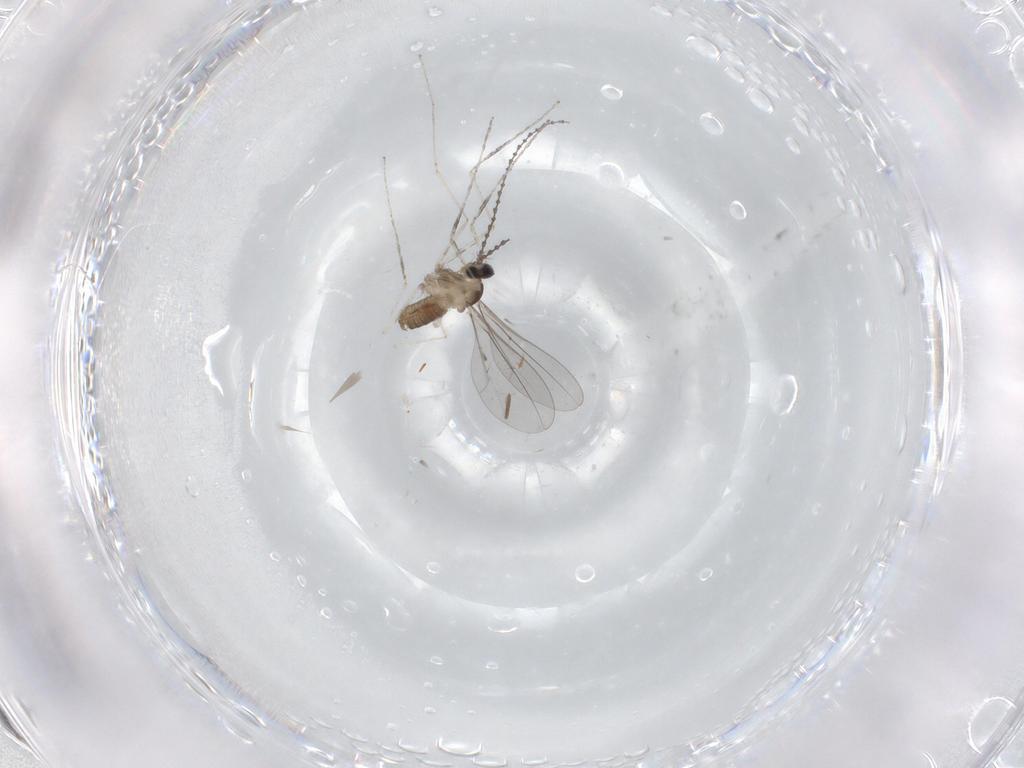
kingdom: Animalia
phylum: Arthropoda
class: Insecta
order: Diptera
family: Cecidomyiidae
